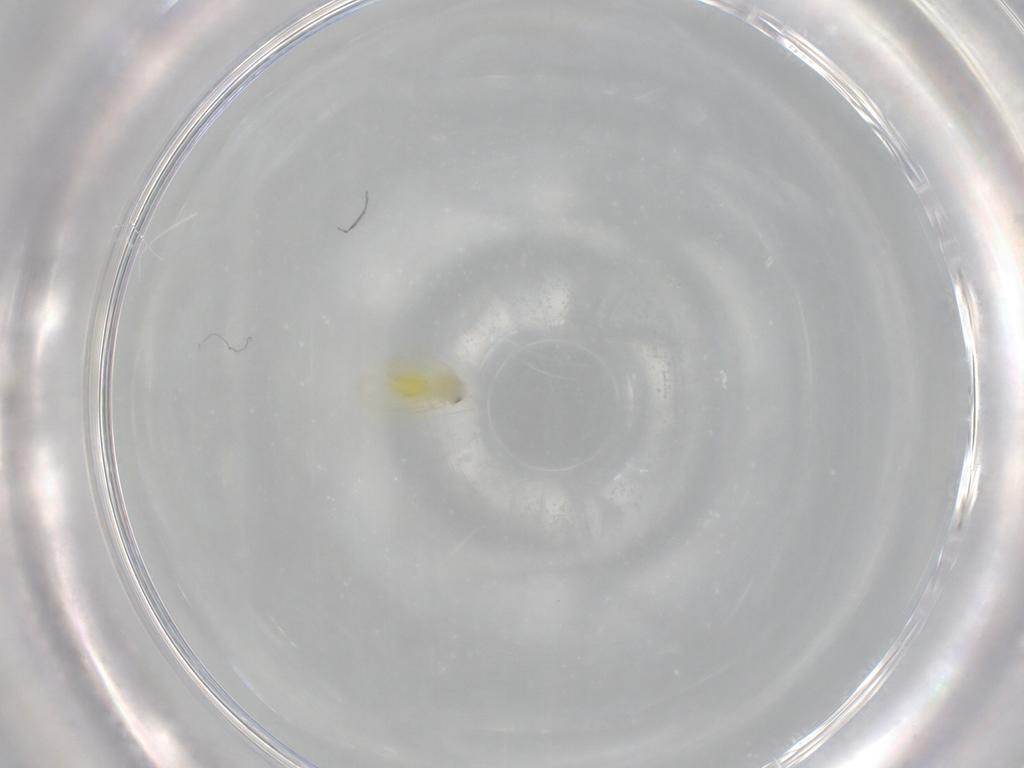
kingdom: Animalia
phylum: Arthropoda
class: Insecta
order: Hemiptera
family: Aleyrodidae
